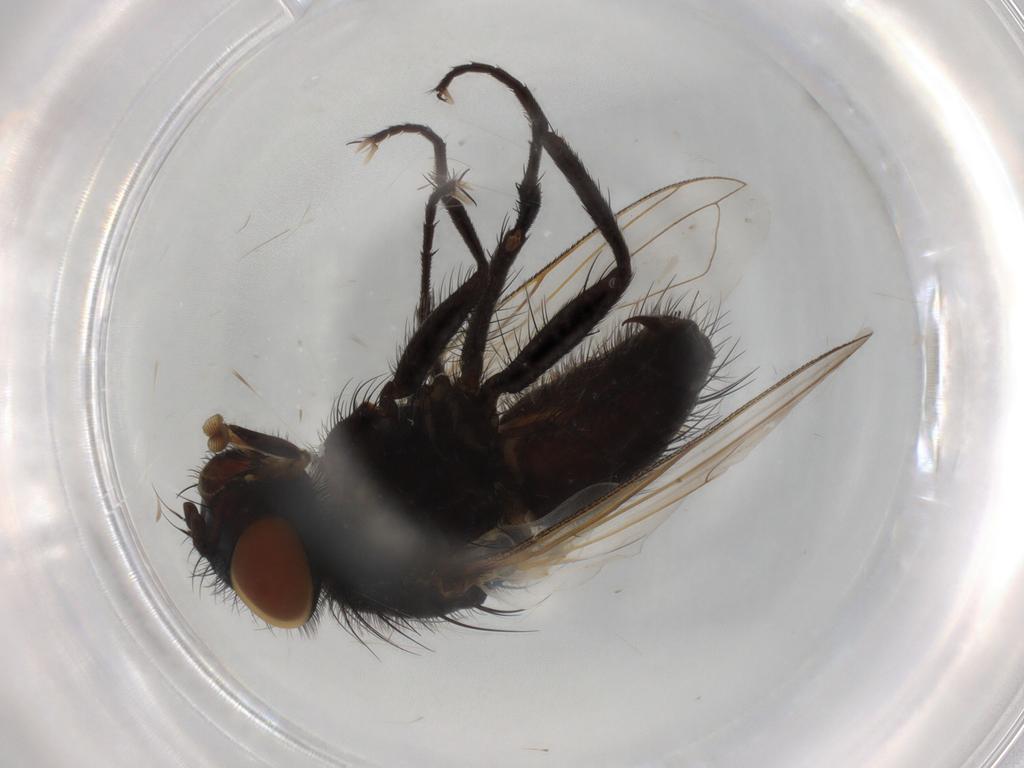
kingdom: Animalia
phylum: Arthropoda
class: Insecta
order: Diptera
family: Tachinidae
